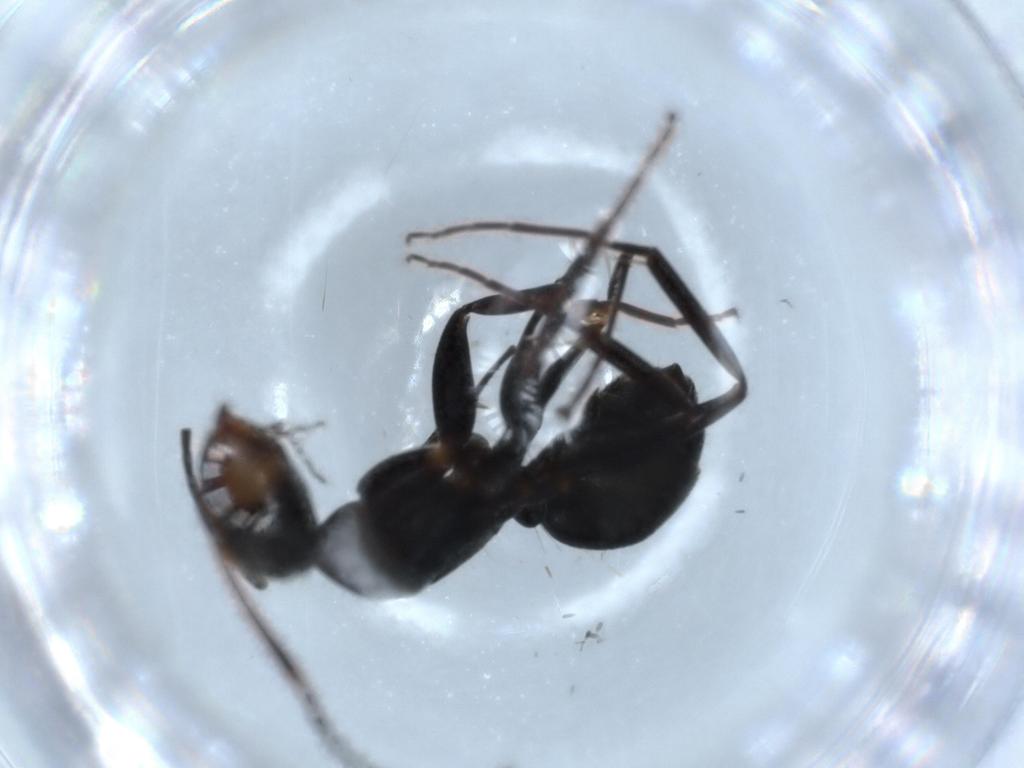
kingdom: Animalia
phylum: Arthropoda
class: Insecta
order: Hymenoptera
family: Formicidae
